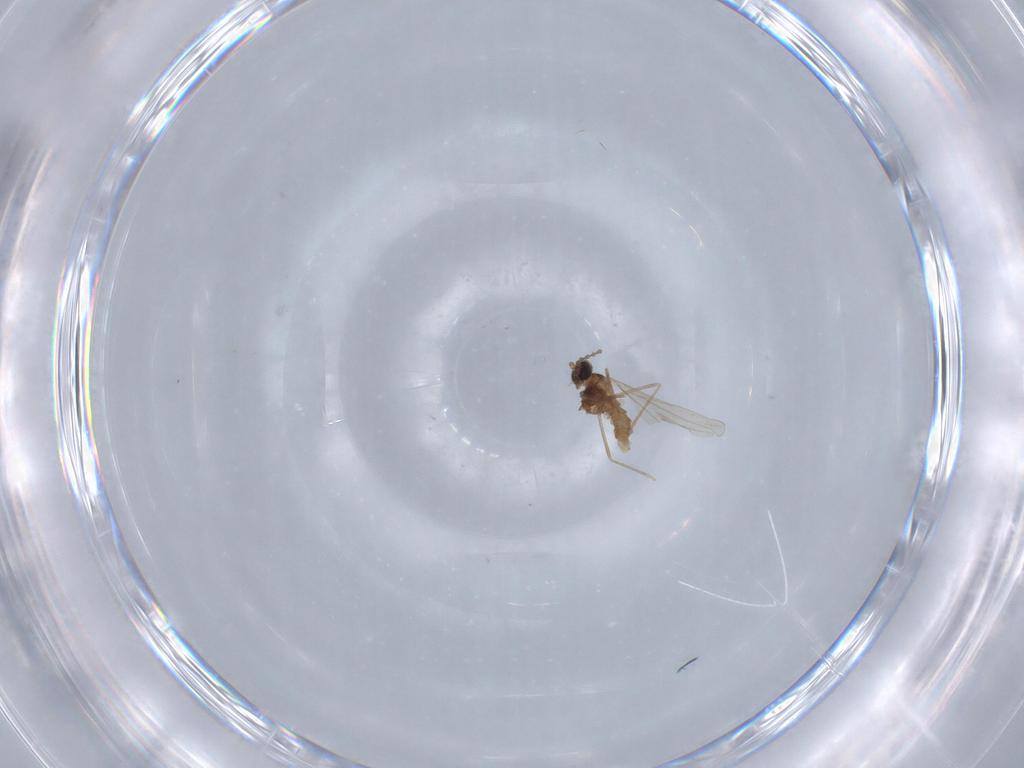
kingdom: Animalia
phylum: Arthropoda
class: Insecta
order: Diptera
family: Cecidomyiidae
